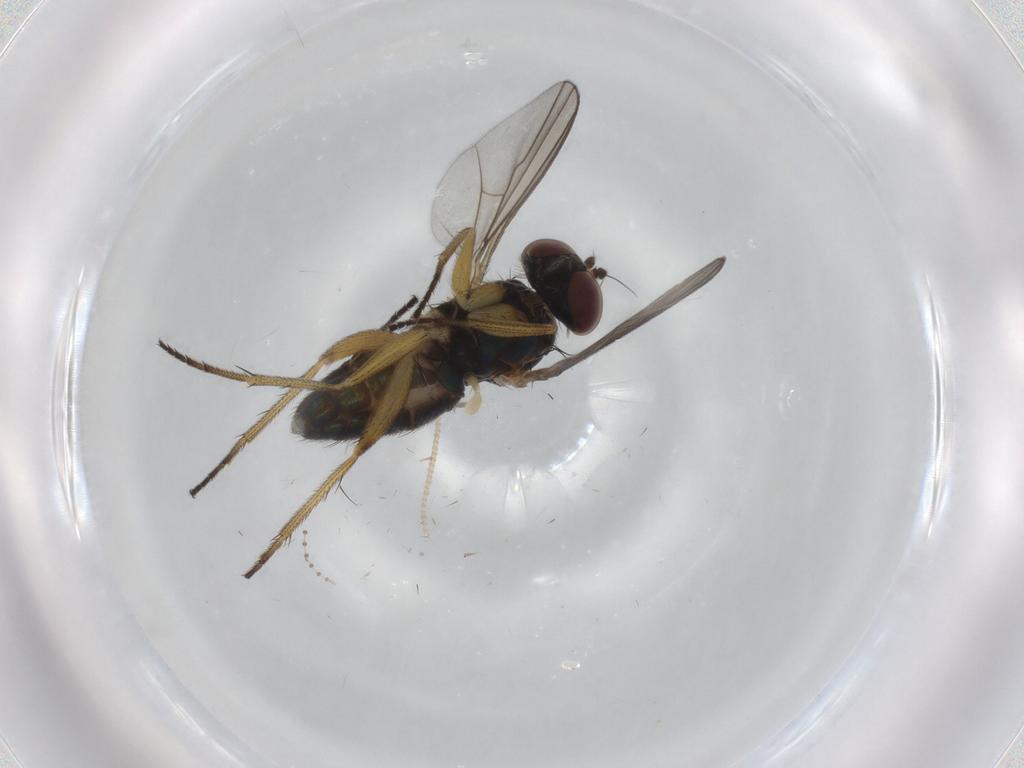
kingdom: Animalia
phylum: Arthropoda
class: Insecta
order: Diptera
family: Dolichopodidae
